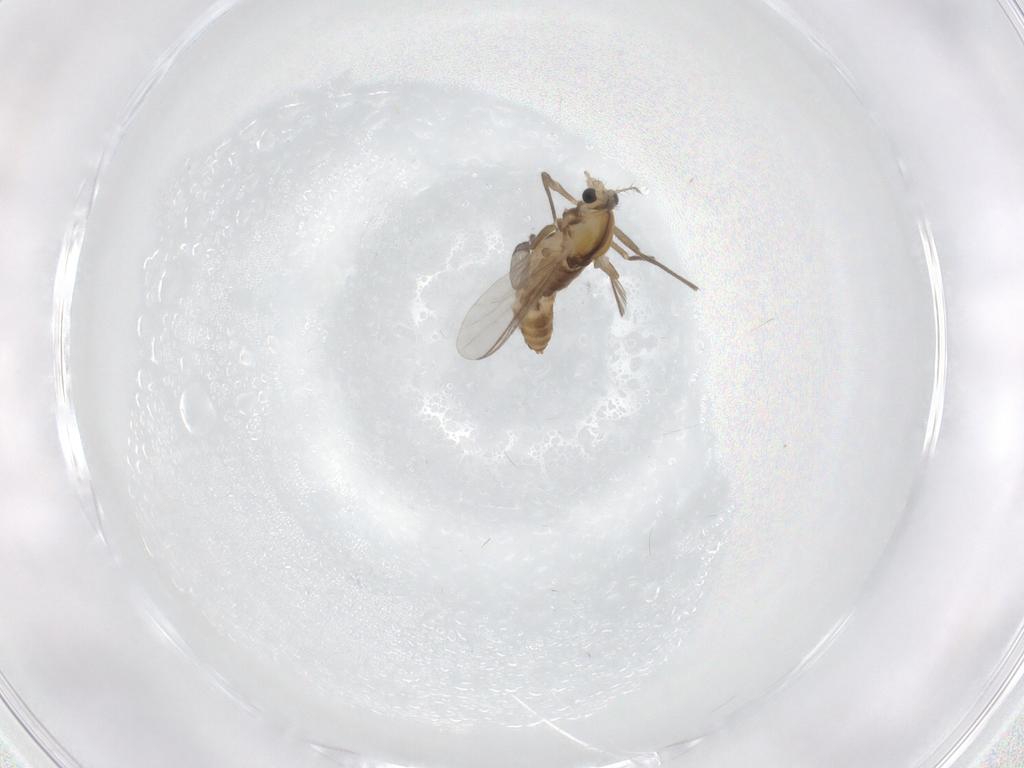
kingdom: Animalia
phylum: Arthropoda
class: Insecta
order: Diptera
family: Chironomidae
